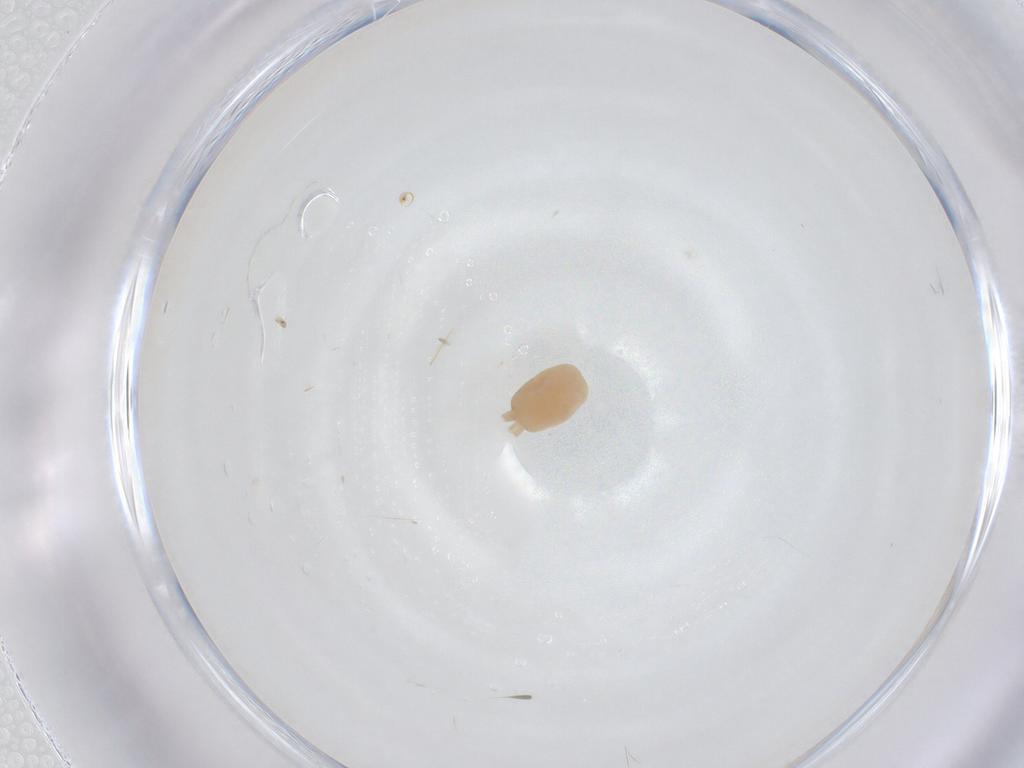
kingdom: Animalia
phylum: Arthropoda
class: Arachnida
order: Araneae
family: Corinnidae
